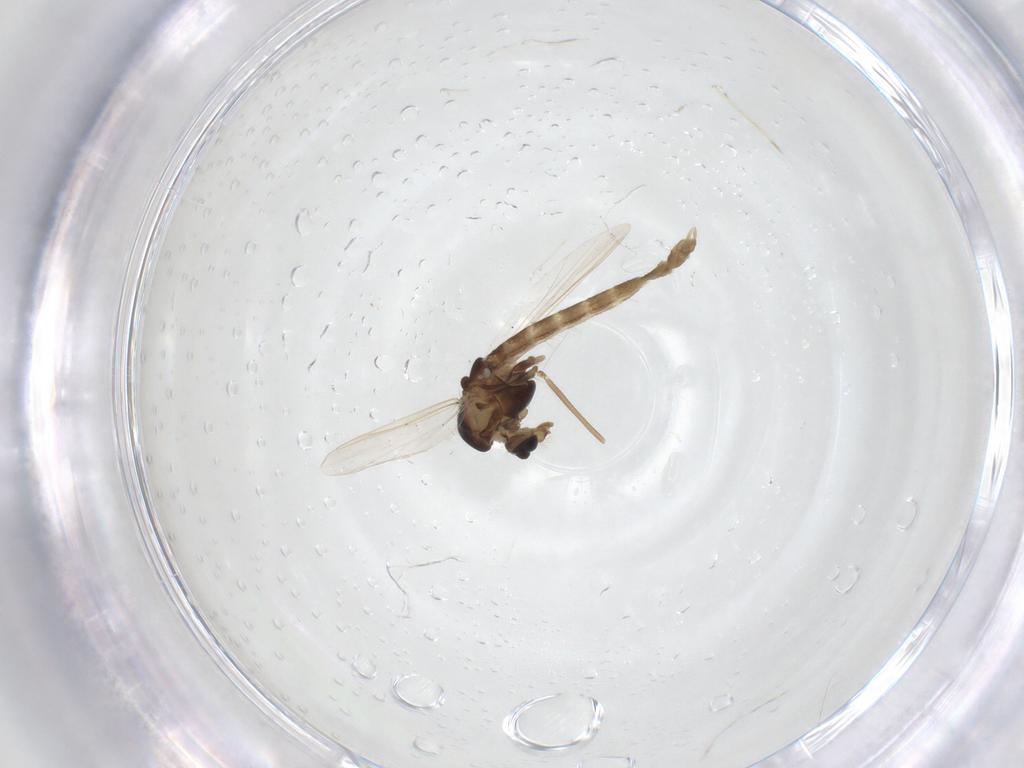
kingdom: Animalia
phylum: Arthropoda
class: Insecta
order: Diptera
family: Chironomidae
